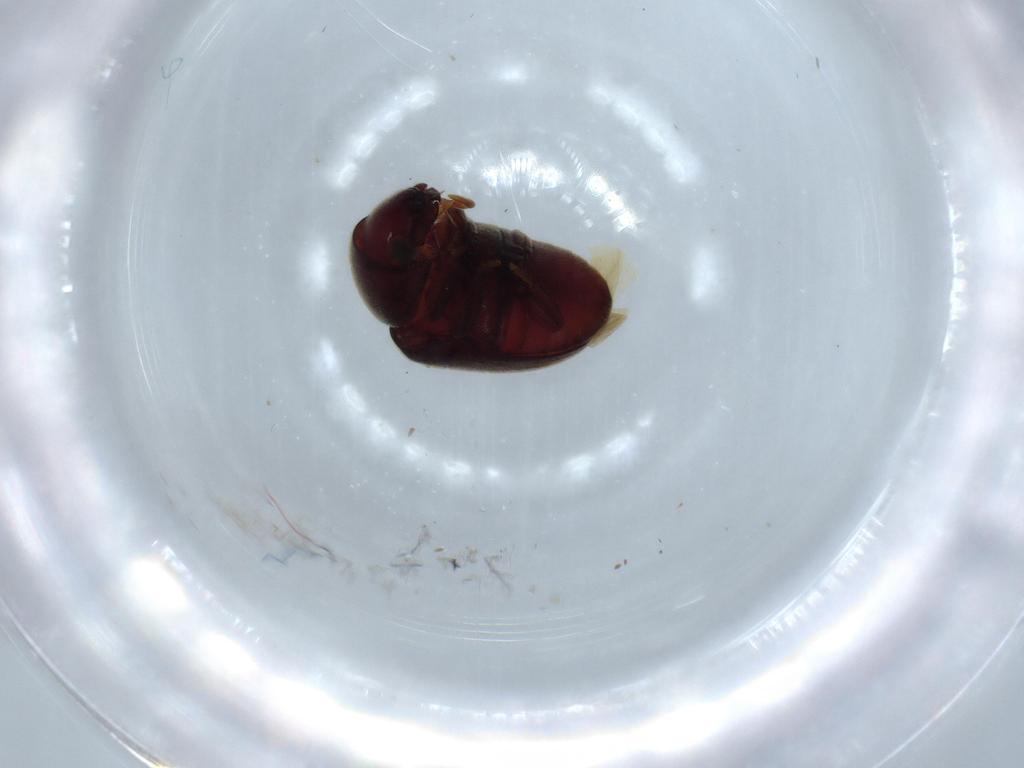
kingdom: Animalia
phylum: Arthropoda
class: Insecta
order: Coleoptera
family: Ptinidae
